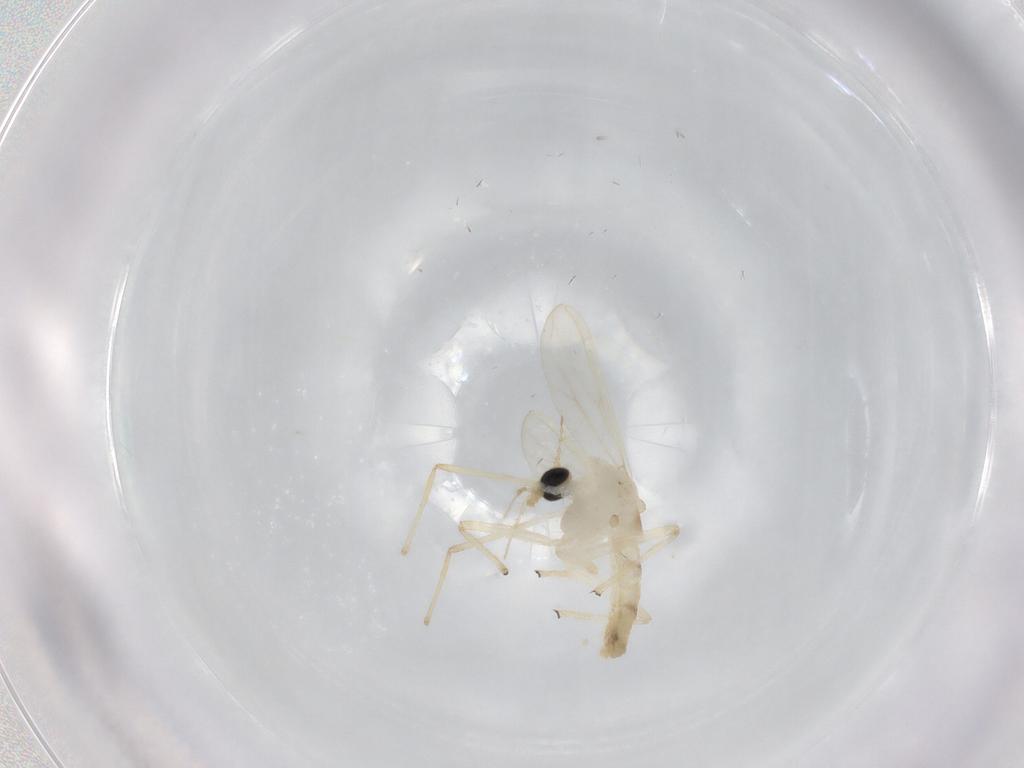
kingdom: Animalia
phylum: Arthropoda
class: Insecta
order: Diptera
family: Chironomidae
